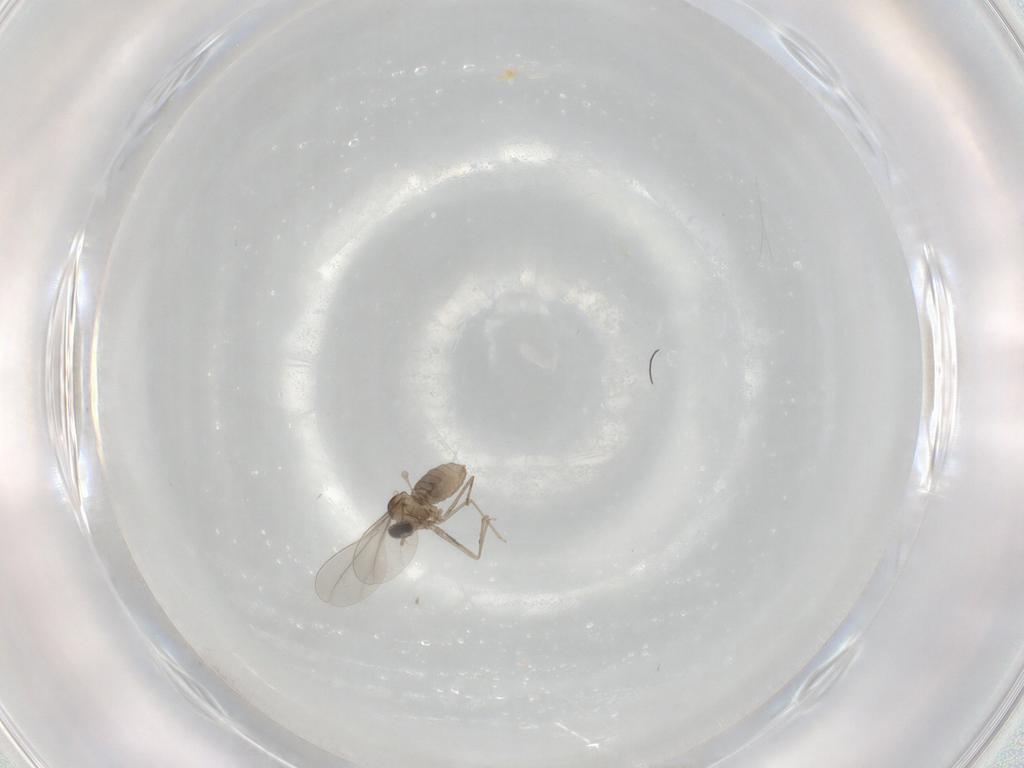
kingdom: Animalia
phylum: Arthropoda
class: Insecta
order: Diptera
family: Cecidomyiidae
